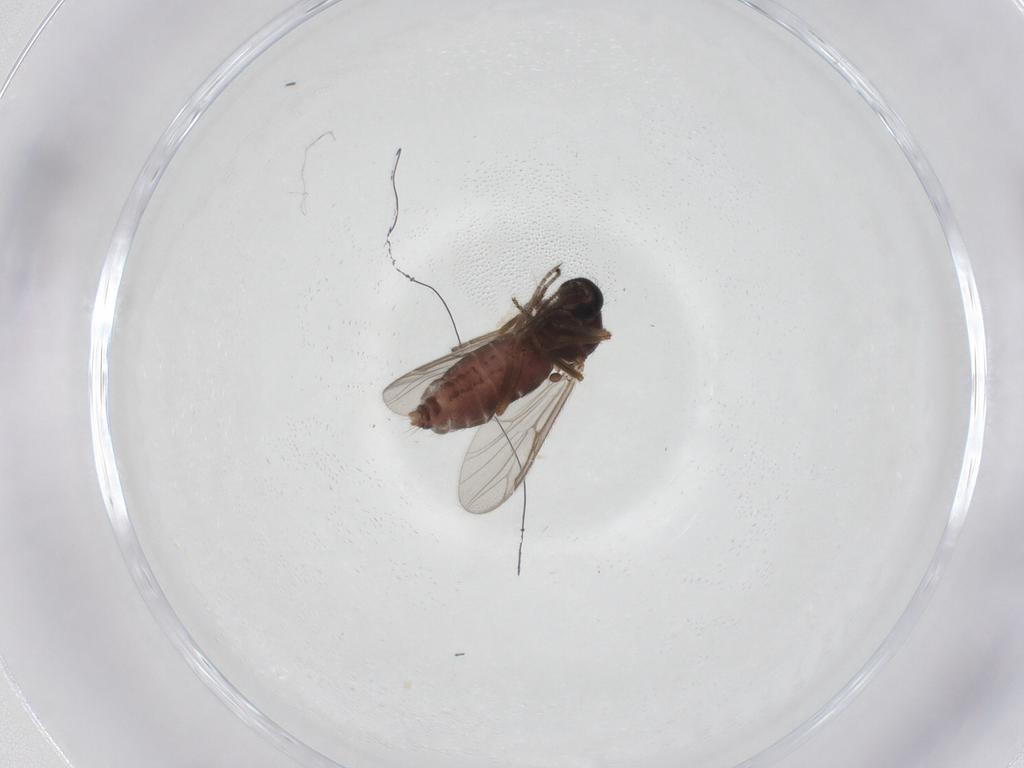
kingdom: Animalia
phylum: Arthropoda
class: Insecta
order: Diptera
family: Ceratopogonidae
